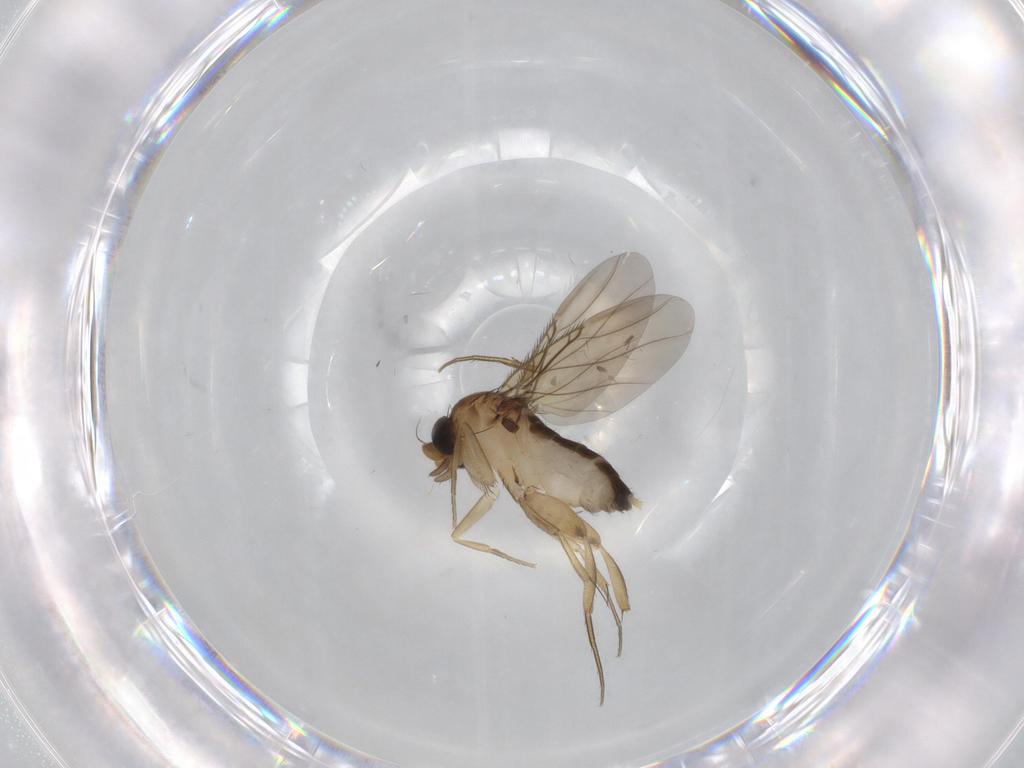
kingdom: Animalia
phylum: Arthropoda
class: Insecta
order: Diptera
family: Phoridae
